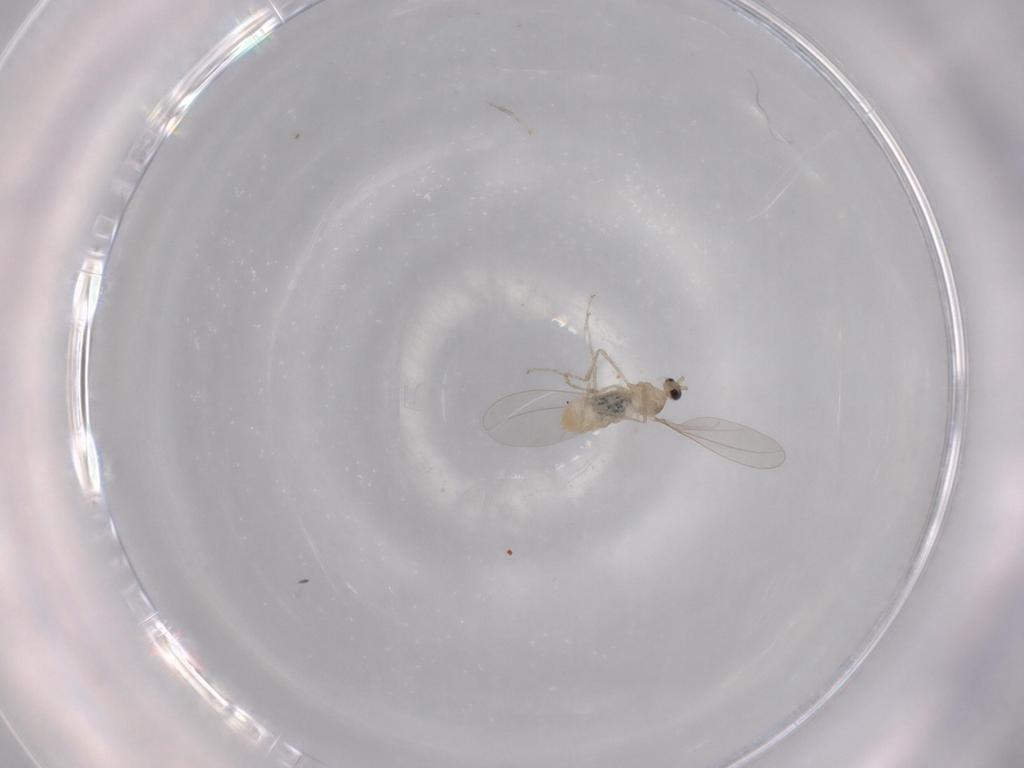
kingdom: Animalia
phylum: Arthropoda
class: Insecta
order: Diptera
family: Cecidomyiidae
